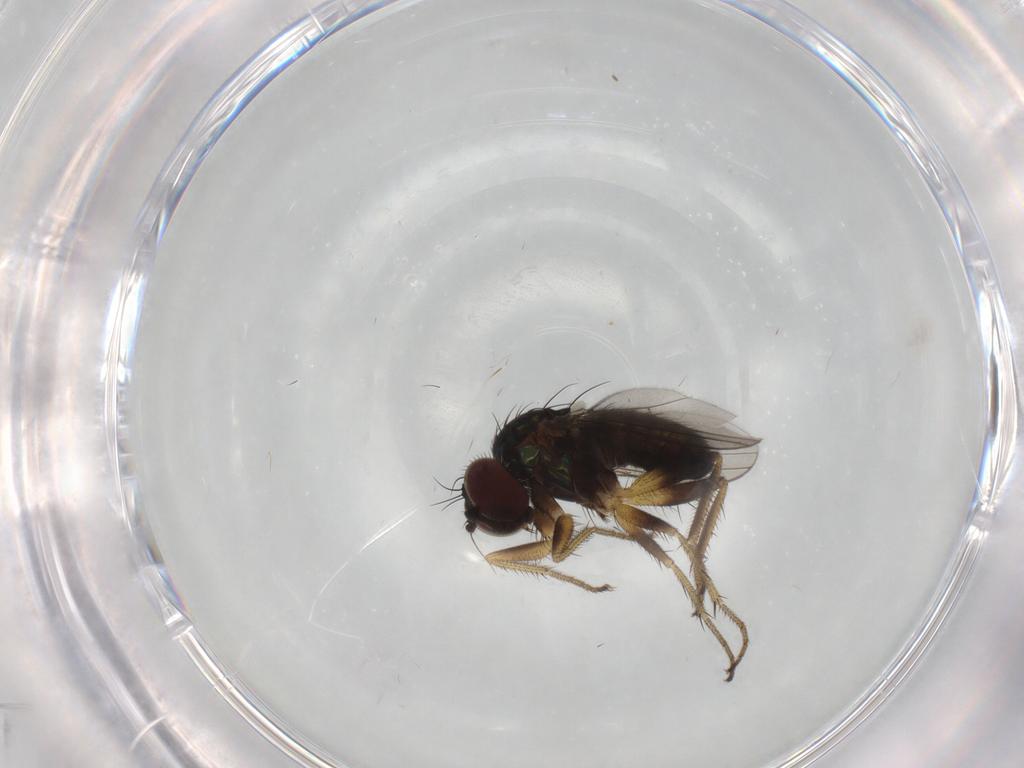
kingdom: Animalia
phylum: Arthropoda
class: Insecta
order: Diptera
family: Dolichopodidae
